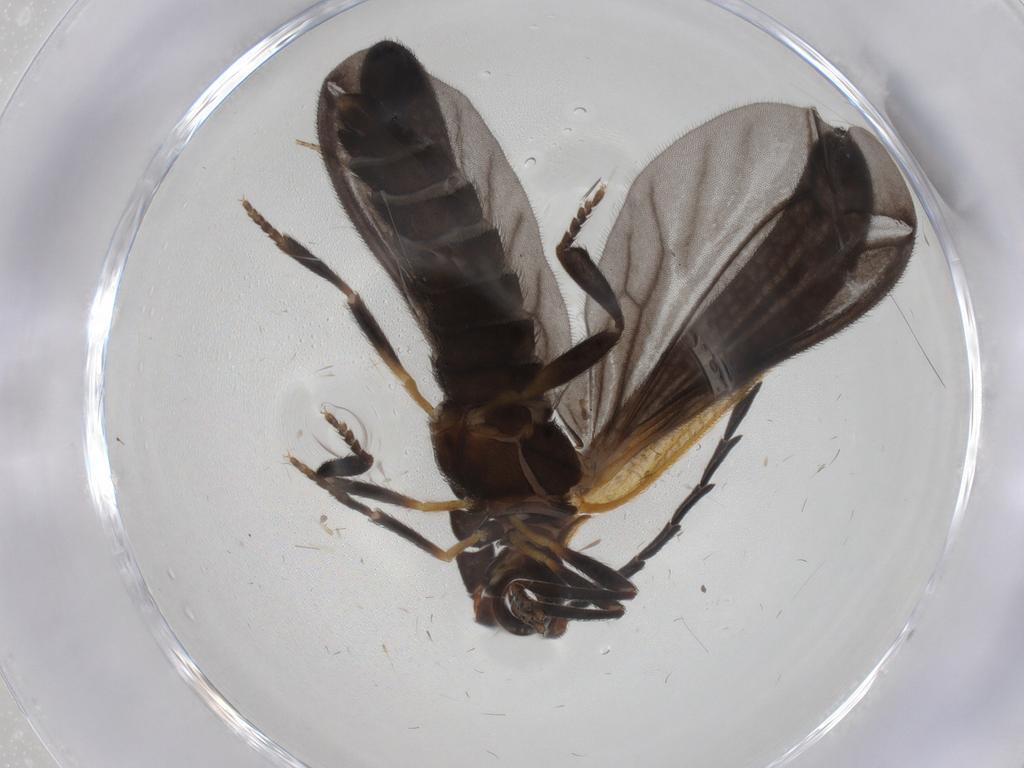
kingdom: Animalia
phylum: Arthropoda
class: Insecta
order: Coleoptera
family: Lycidae
